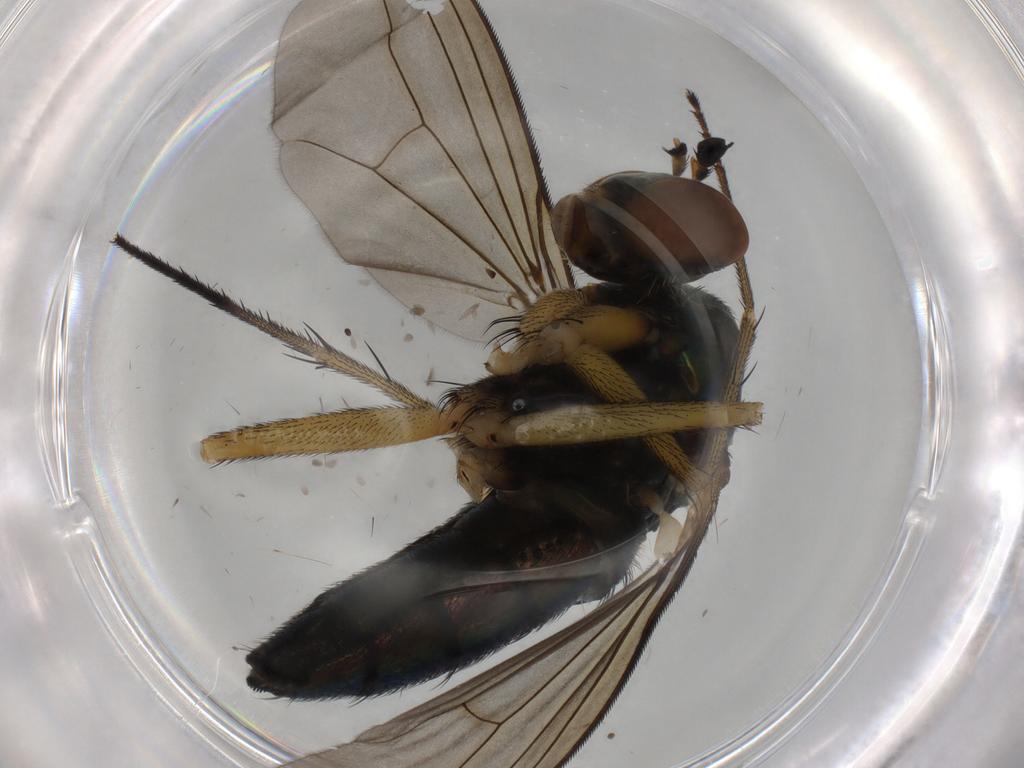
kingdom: Animalia
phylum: Arthropoda
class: Insecta
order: Diptera
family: Dolichopodidae
